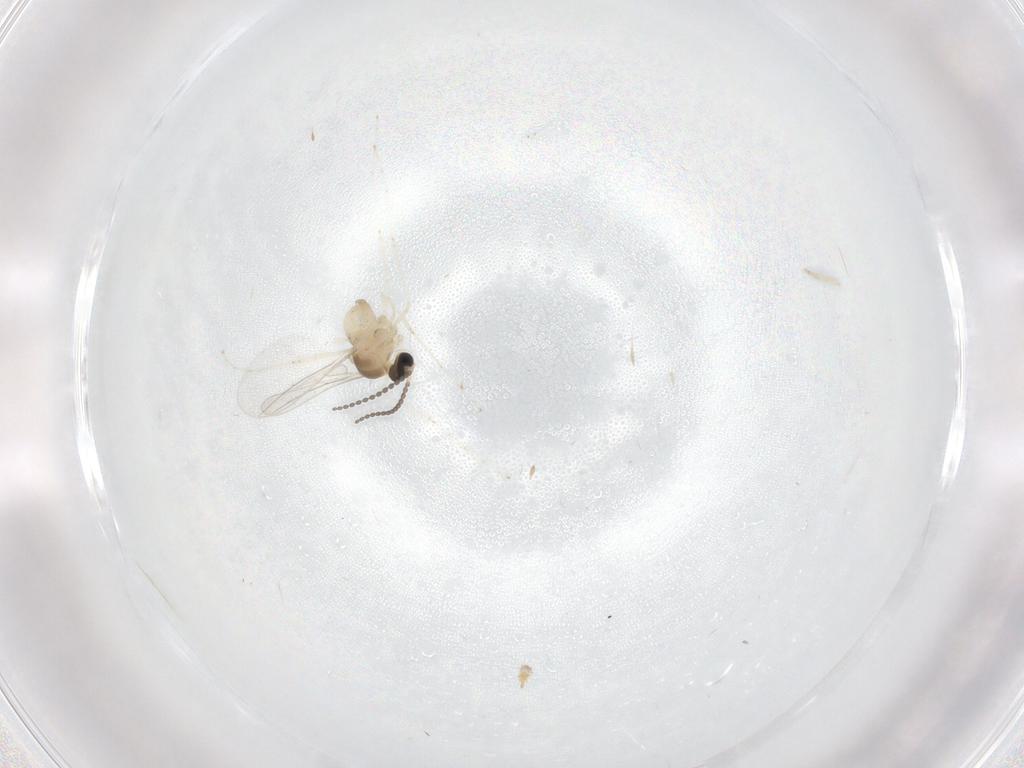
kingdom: Animalia
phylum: Arthropoda
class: Insecta
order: Diptera
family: Cecidomyiidae
